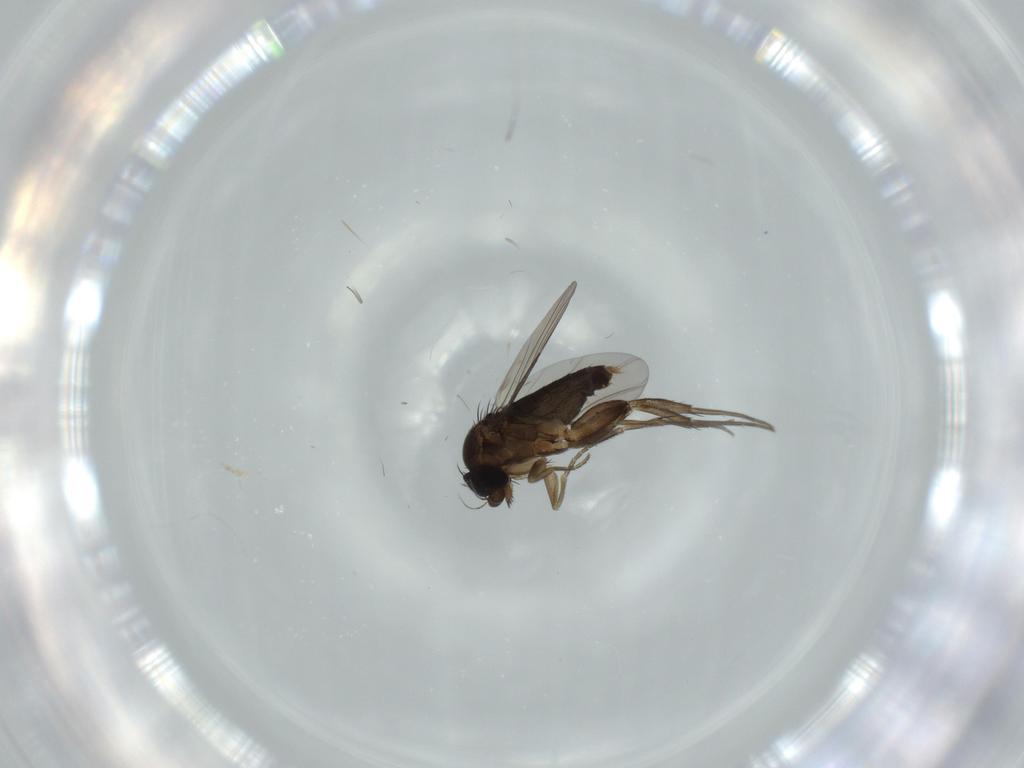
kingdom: Animalia
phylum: Arthropoda
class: Insecta
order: Diptera
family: Phoridae
